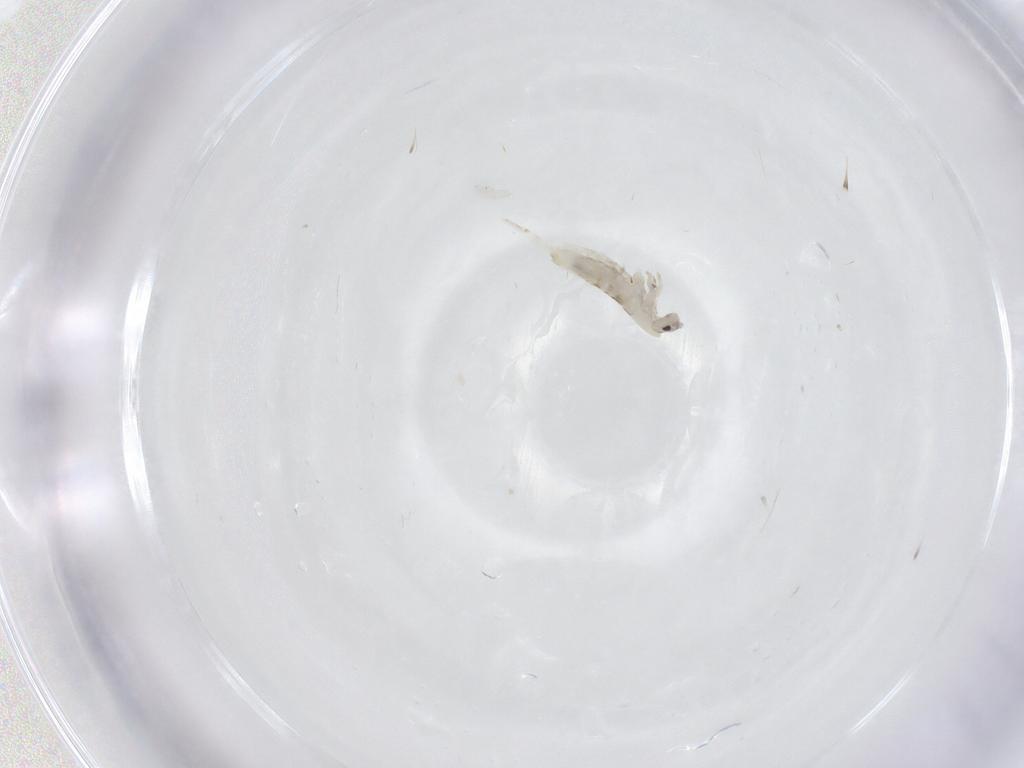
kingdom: Animalia
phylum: Arthropoda
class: Collembola
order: Entomobryomorpha
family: Entomobryidae
